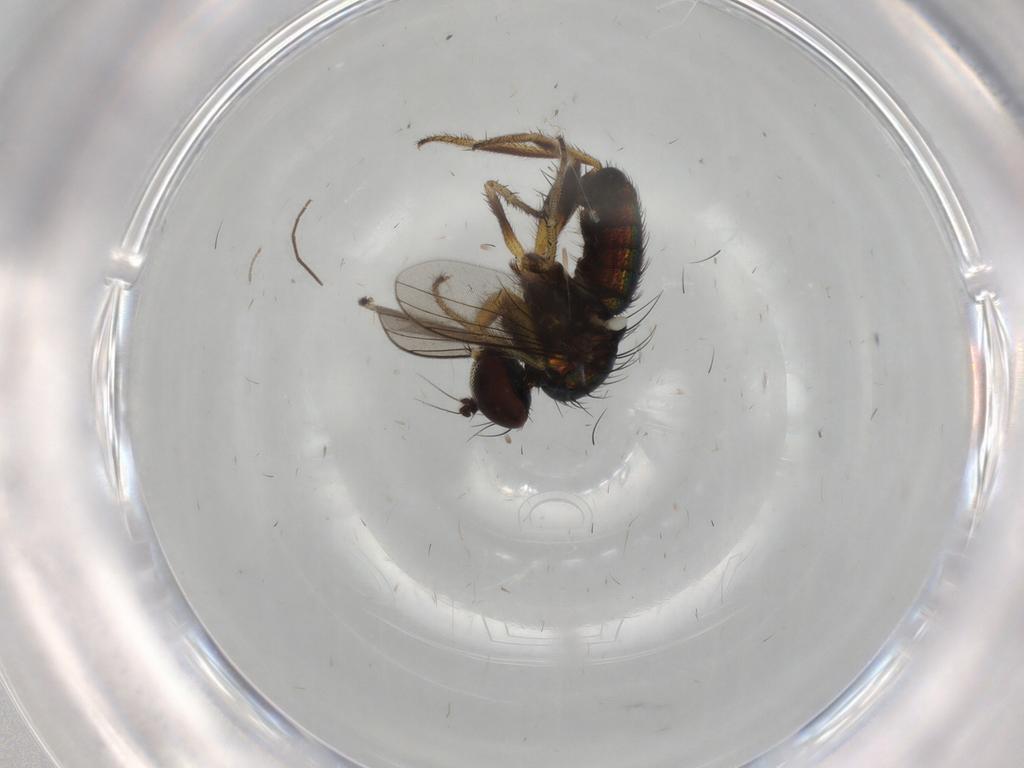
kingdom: Animalia
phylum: Arthropoda
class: Insecta
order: Diptera
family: Dolichopodidae
